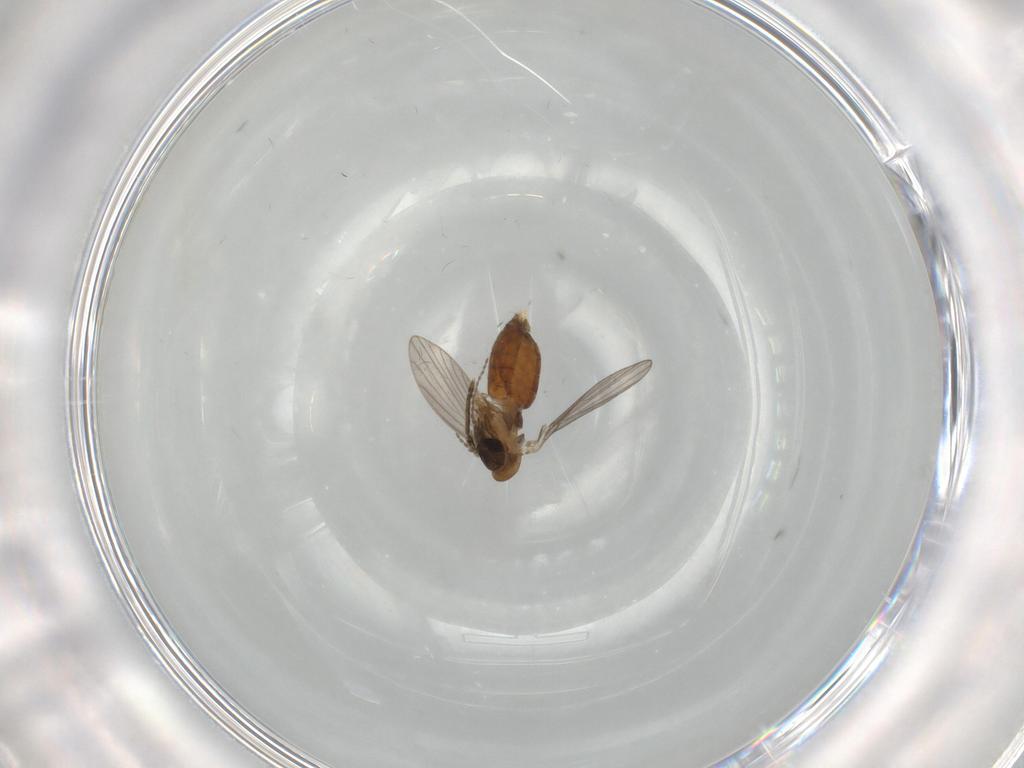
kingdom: Animalia
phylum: Arthropoda
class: Insecta
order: Diptera
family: Psychodidae
